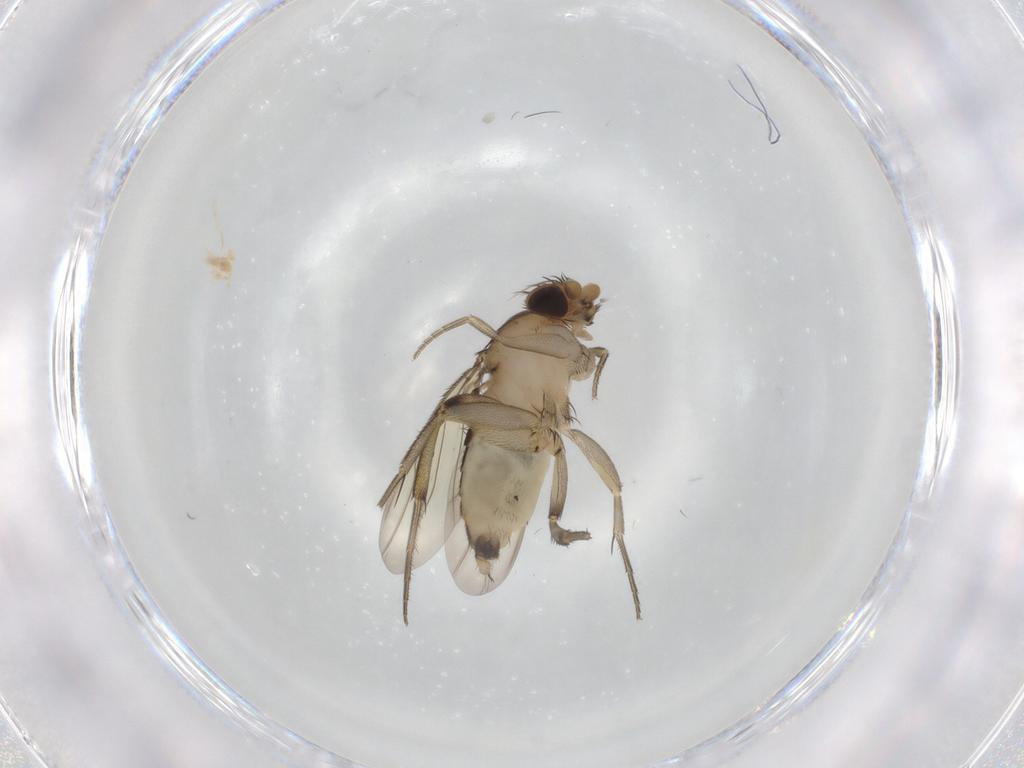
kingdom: Animalia
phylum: Arthropoda
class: Insecta
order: Diptera
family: Phoridae
